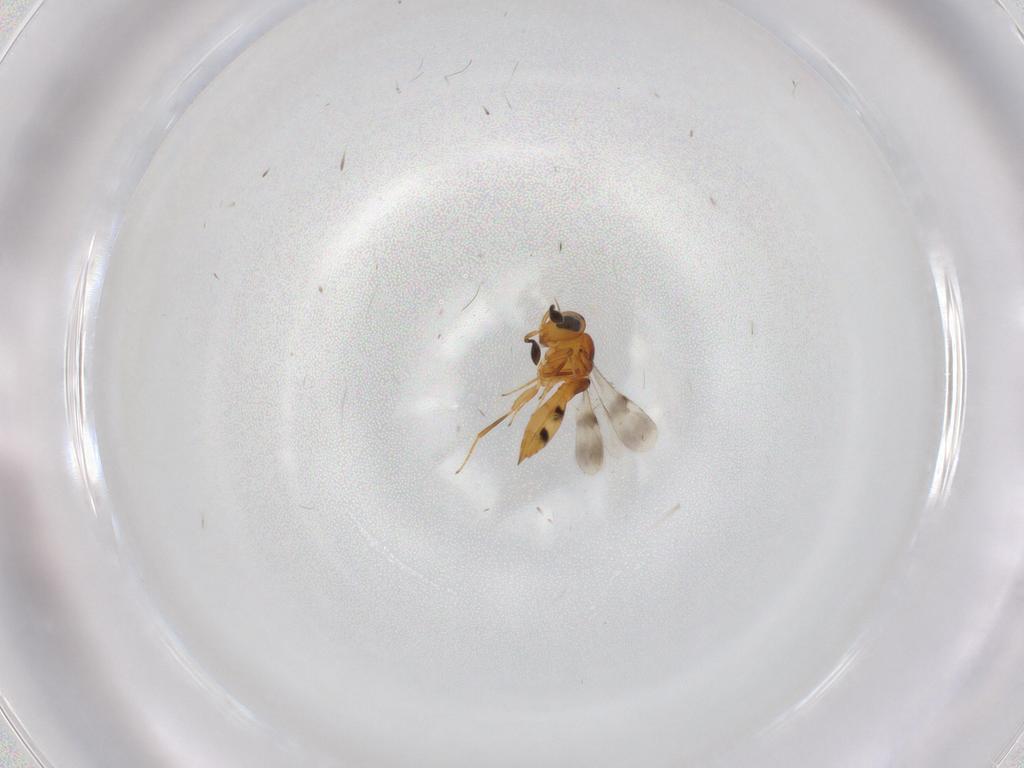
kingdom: Animalia
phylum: Arthropoda
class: Insecta
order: Hymenoptera
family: Scelionidae
